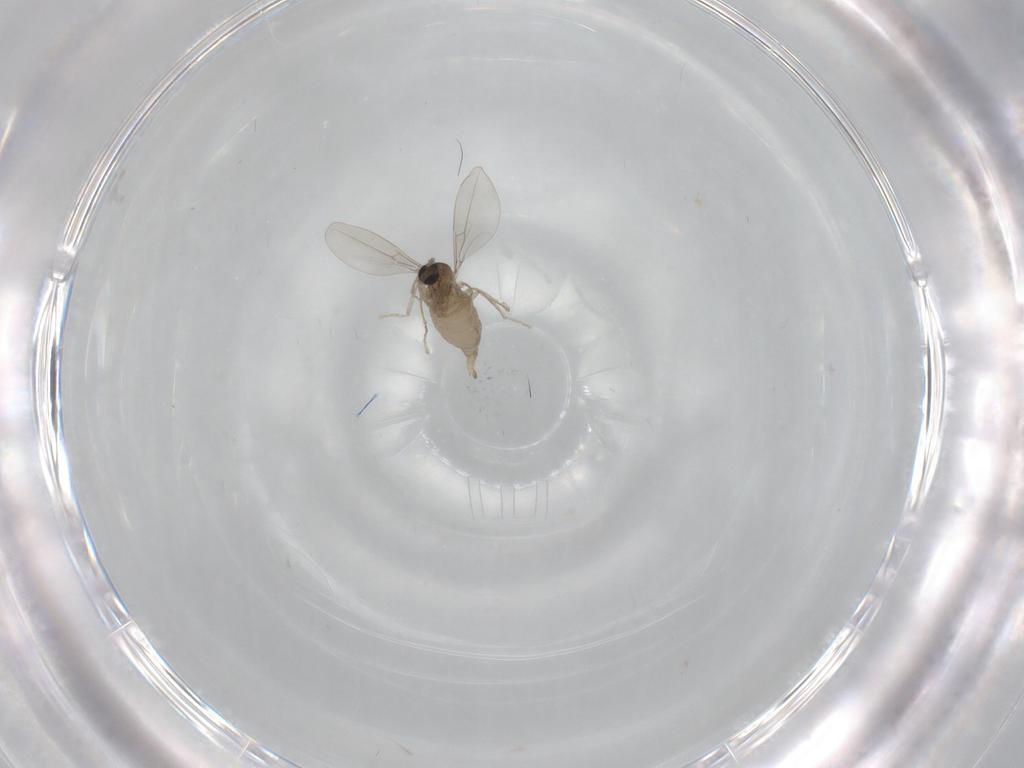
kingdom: Animalia
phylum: Arthropoda
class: Insecta
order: Diptera
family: Cecidomyiidae
